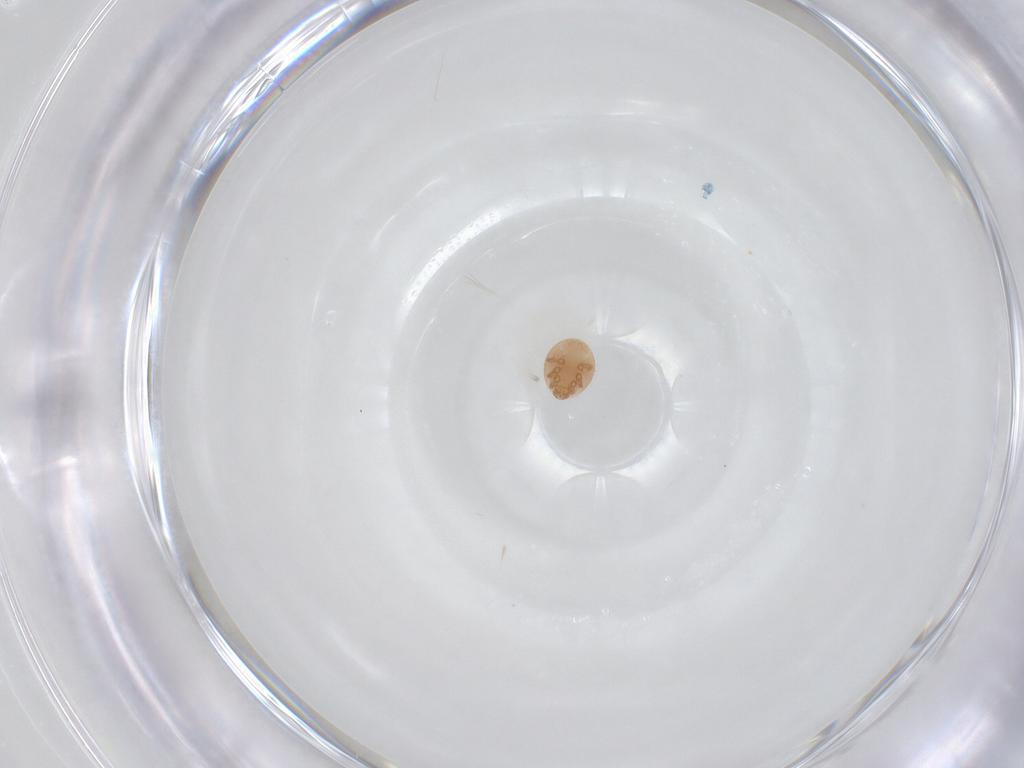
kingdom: Animalia
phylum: Arthropoda
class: Arachnida
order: Mesostigmata
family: Trematuridae
